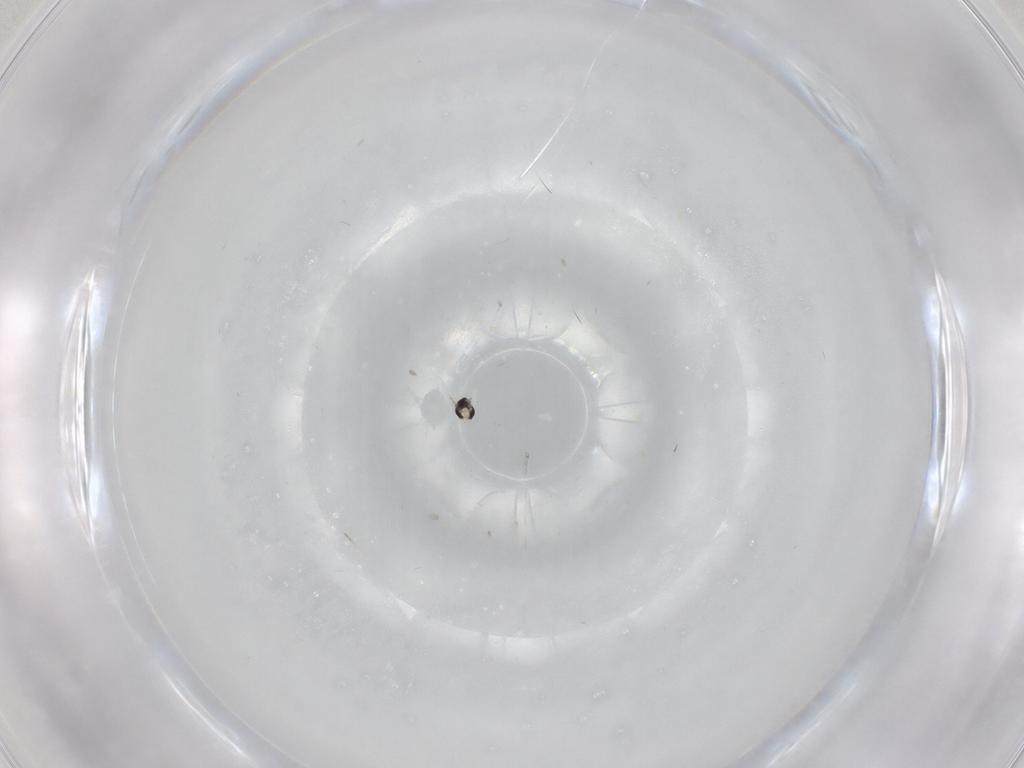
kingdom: Animalia
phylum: Arthropoda
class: Insecta
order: Diptera
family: Cecidomyiidae
